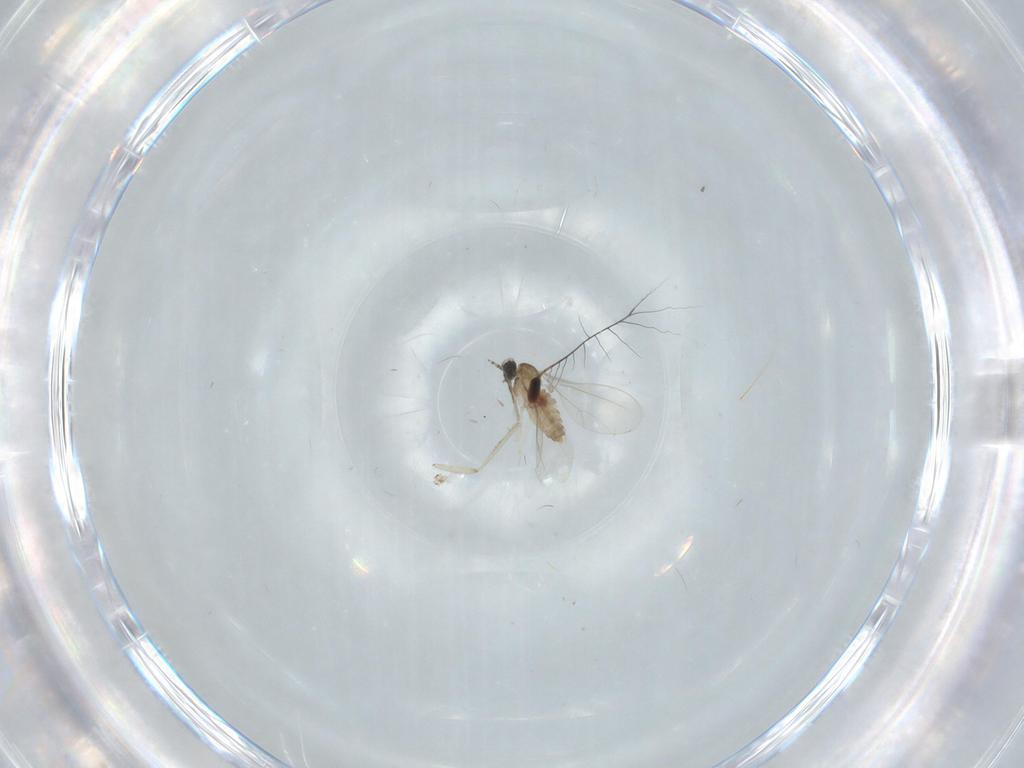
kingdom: Animalia
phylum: Arthropoda
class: Insecta
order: Diptera
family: Cecidomyiidae
